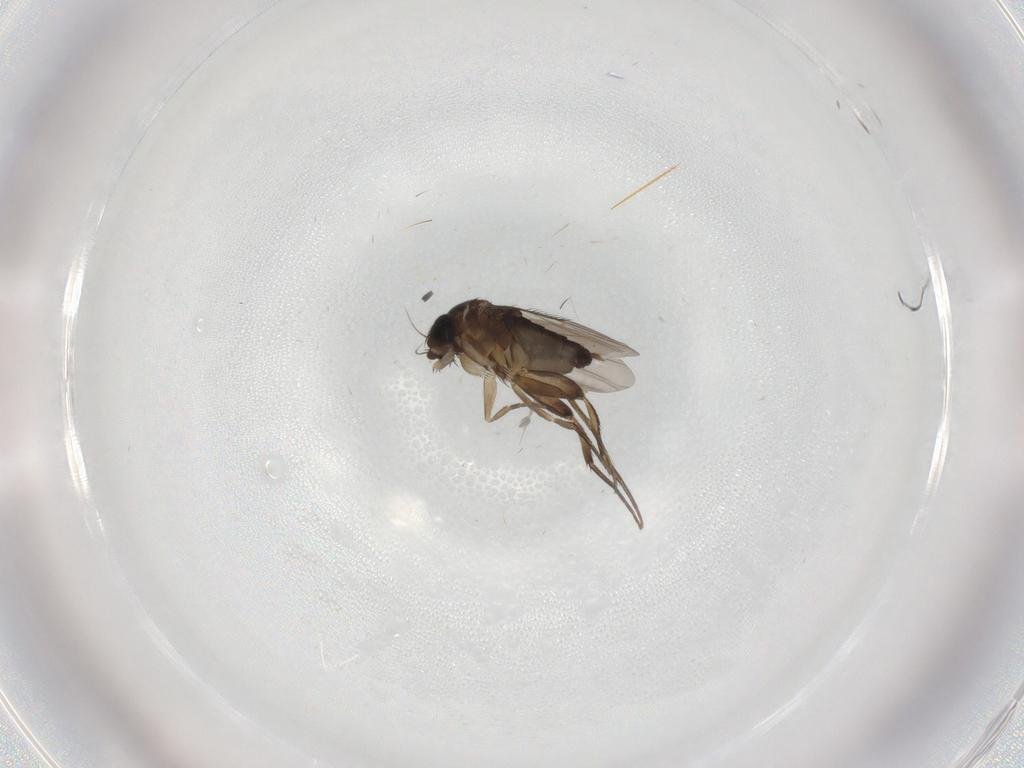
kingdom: Animalia
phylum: Arthropoda
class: Insecta
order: Diptera
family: Phoridae
